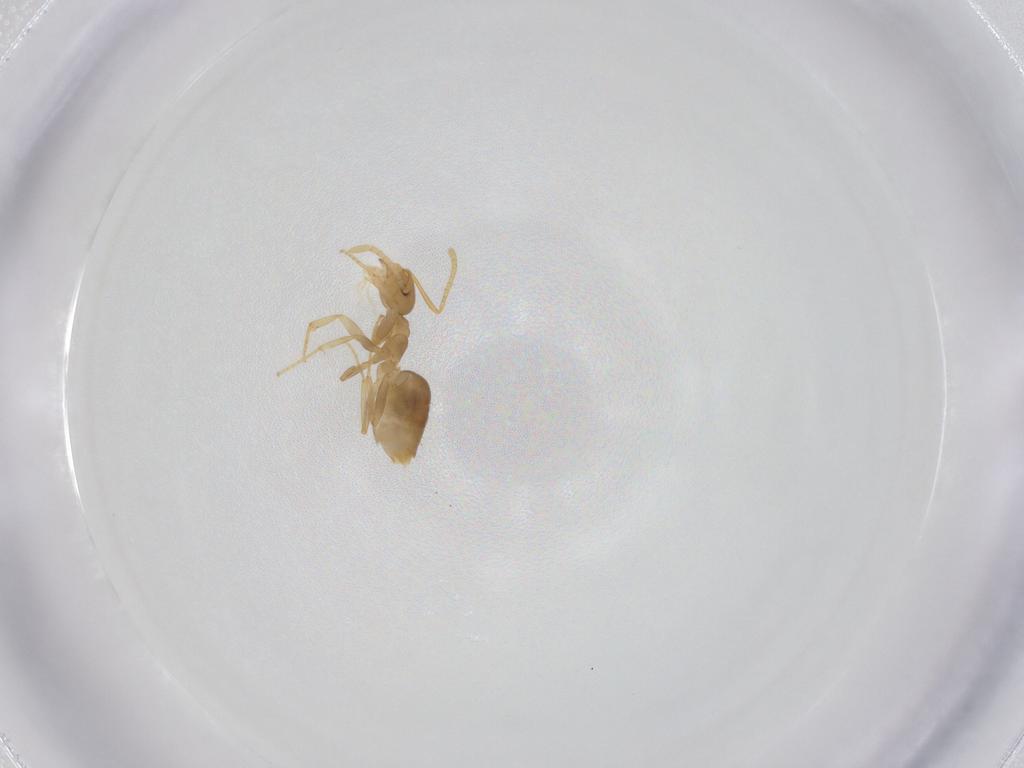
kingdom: Animalia
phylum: Arthropoda
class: Insecta
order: Hymenoptera
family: Formicidae
